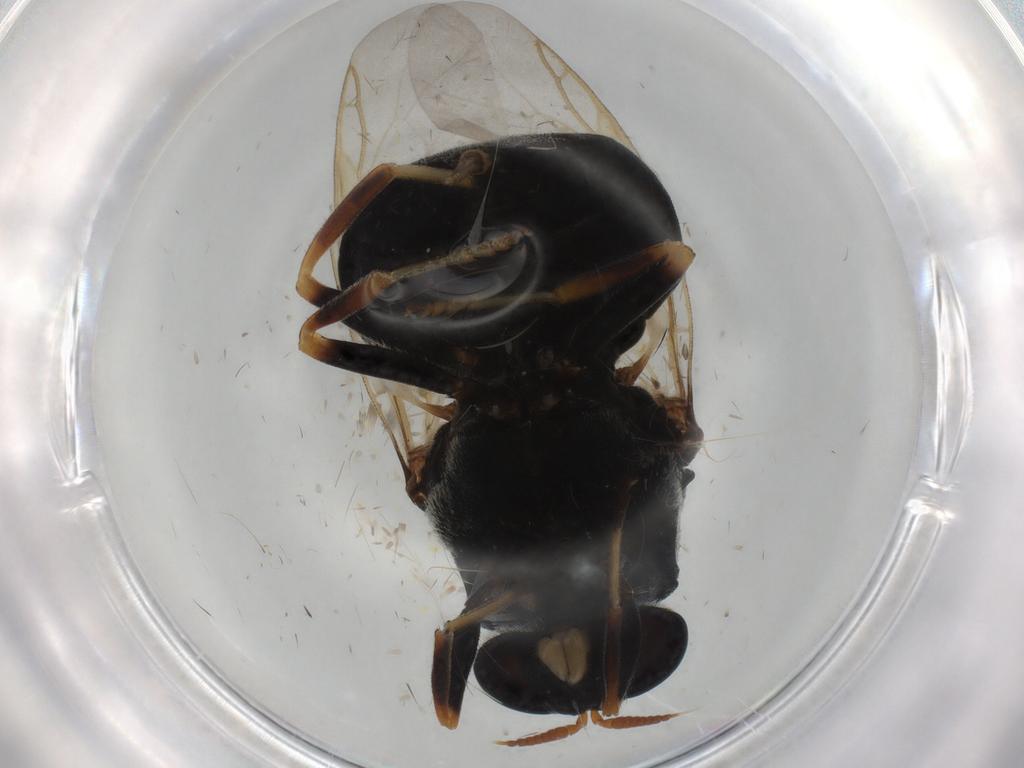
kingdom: Animalia
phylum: Arthropoda
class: Insecta
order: Diptera
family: Stratiomyidae
